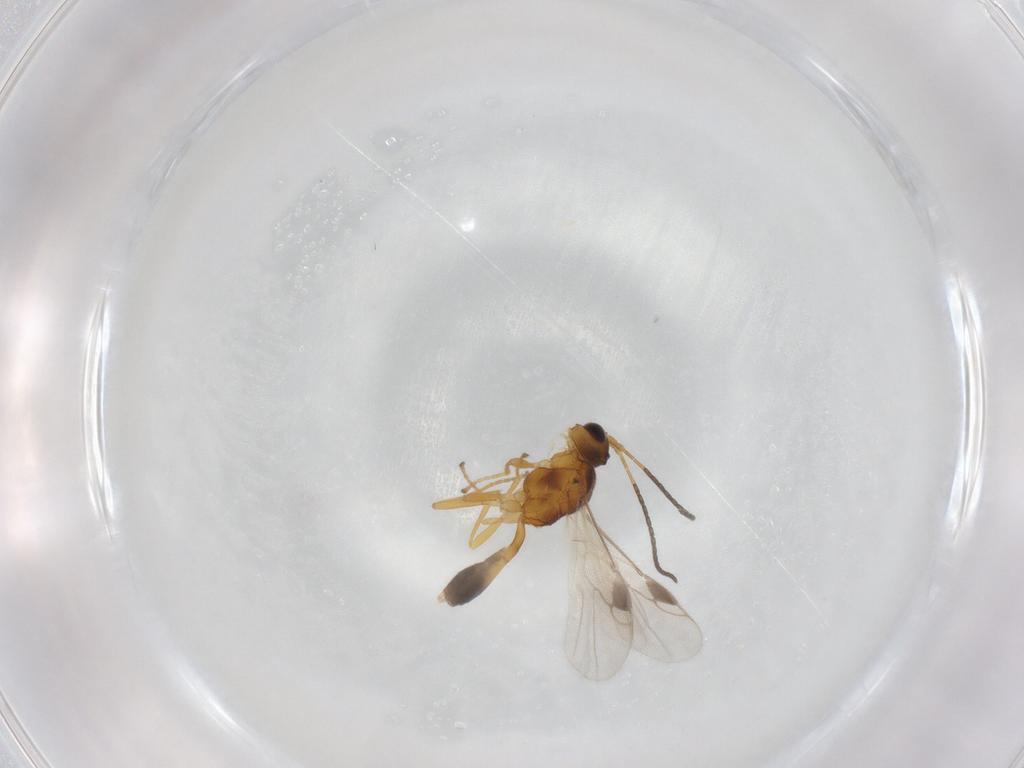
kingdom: Animalia
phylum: Arthropoda
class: Insecta
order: Hymenoptera
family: Braconidae
